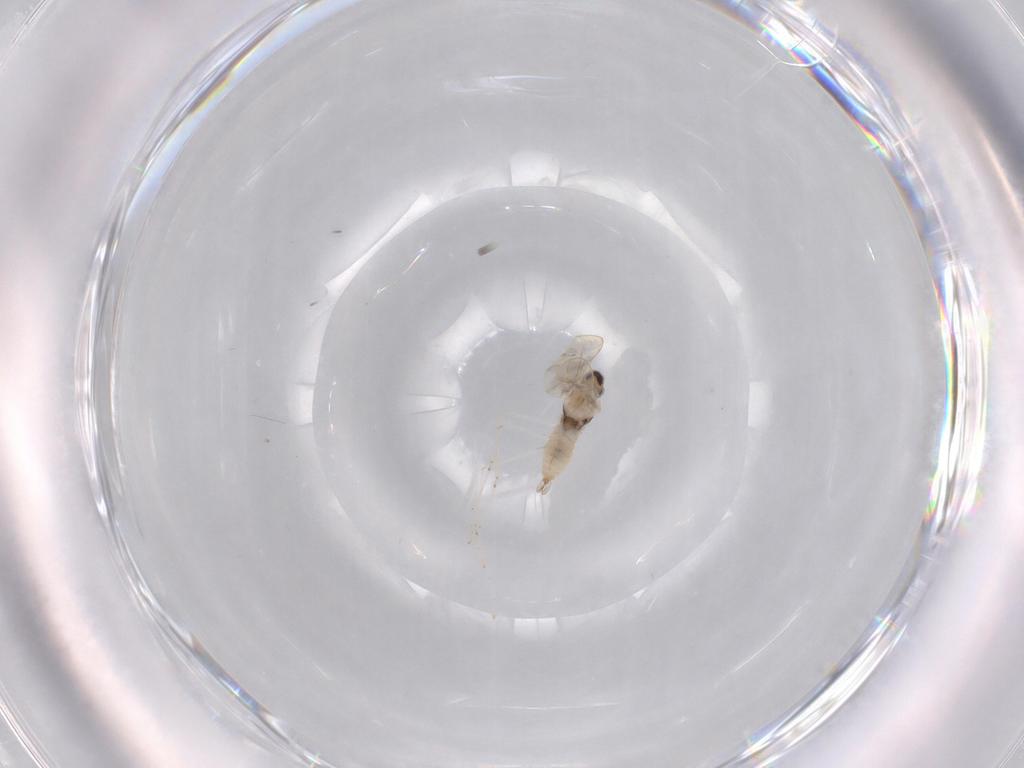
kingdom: Animalia
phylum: Arthropoda
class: Insecta
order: Diptera
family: Cecidomyiidae
